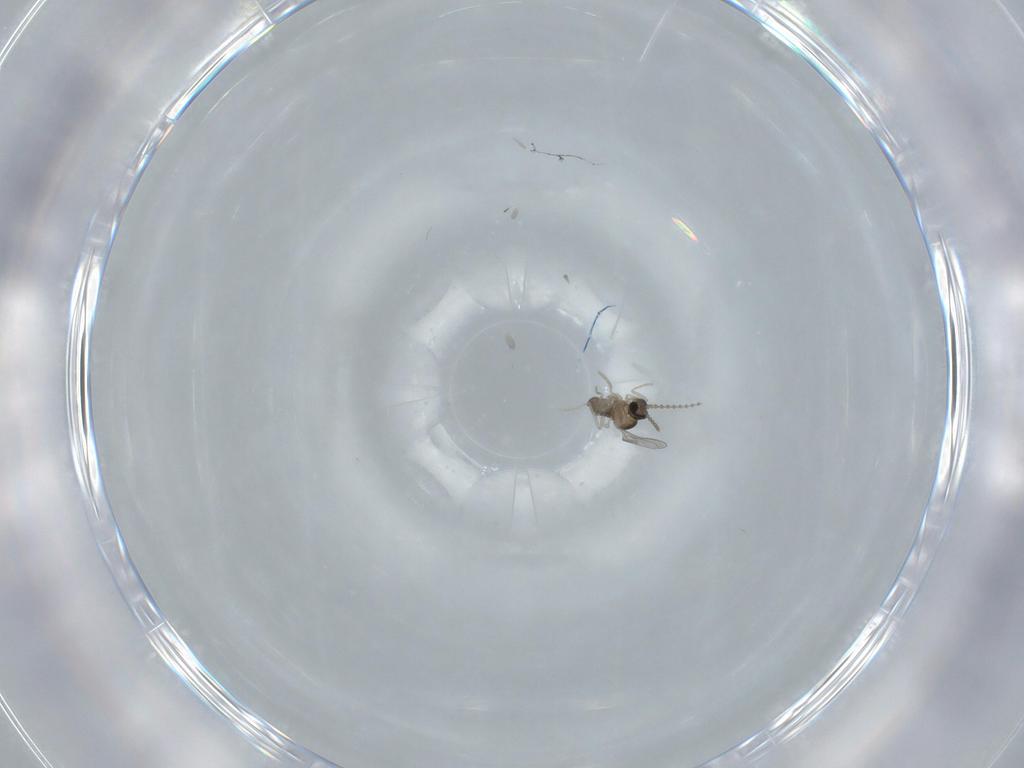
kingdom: Animalia
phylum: Arthropoda
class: Insecta
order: Diptera
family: Cecidomyiidae
